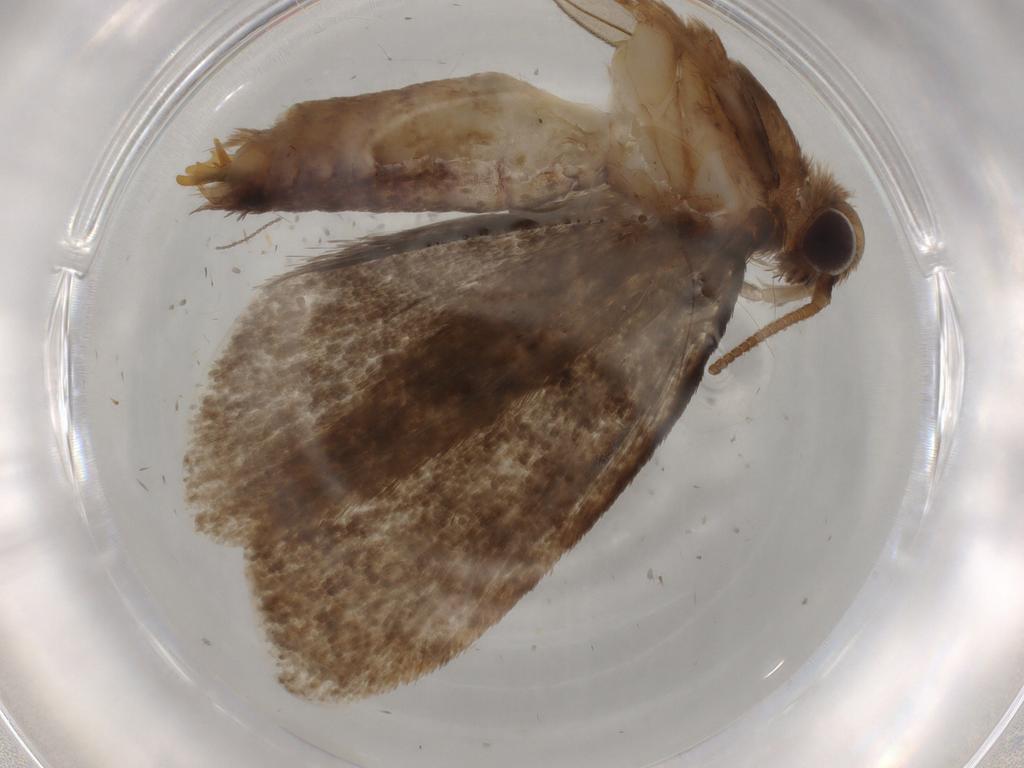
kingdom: Animalia
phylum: Arthropoda
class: Insecta
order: Lepidoptera
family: Tineidae
